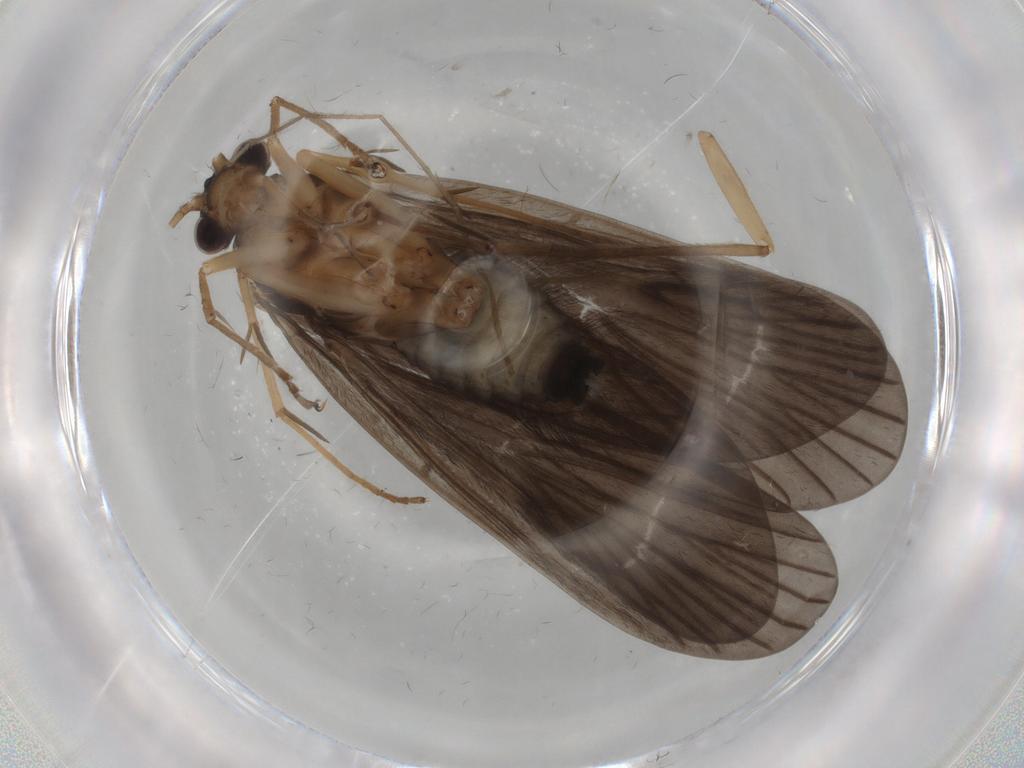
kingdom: Animalia
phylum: Arthropoda
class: Insecta
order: Trichoptera
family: Philopotamidae
